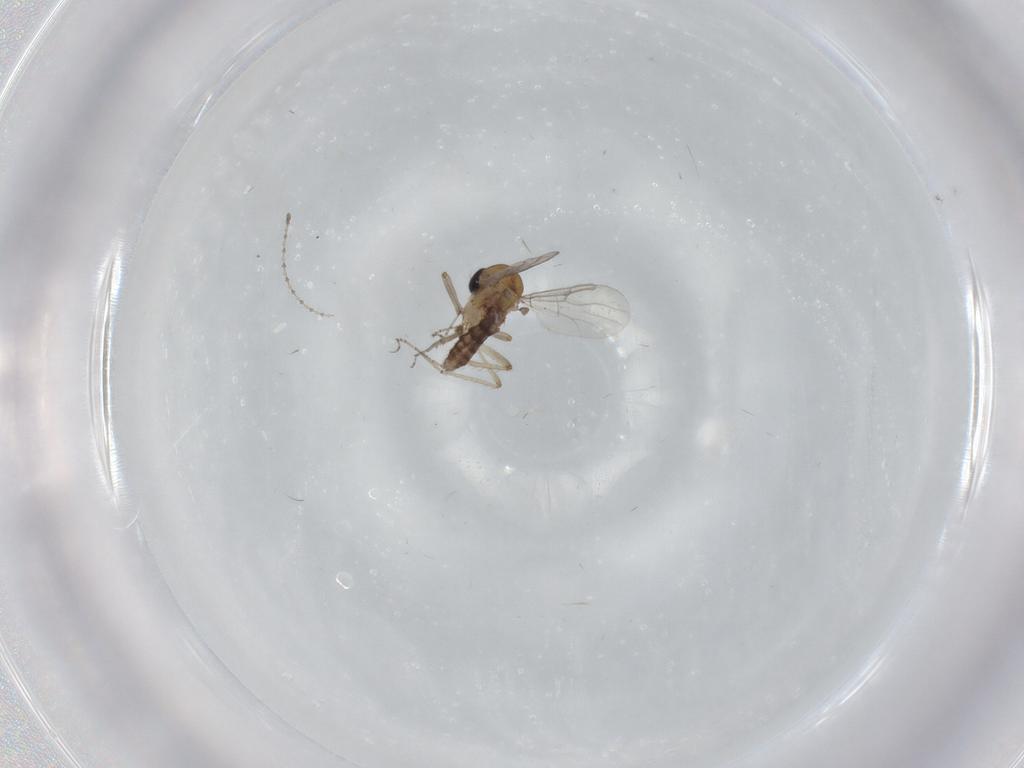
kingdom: Animalia
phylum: Arthropoda
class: Insecta
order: Diptera
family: Ceratopogonidae
